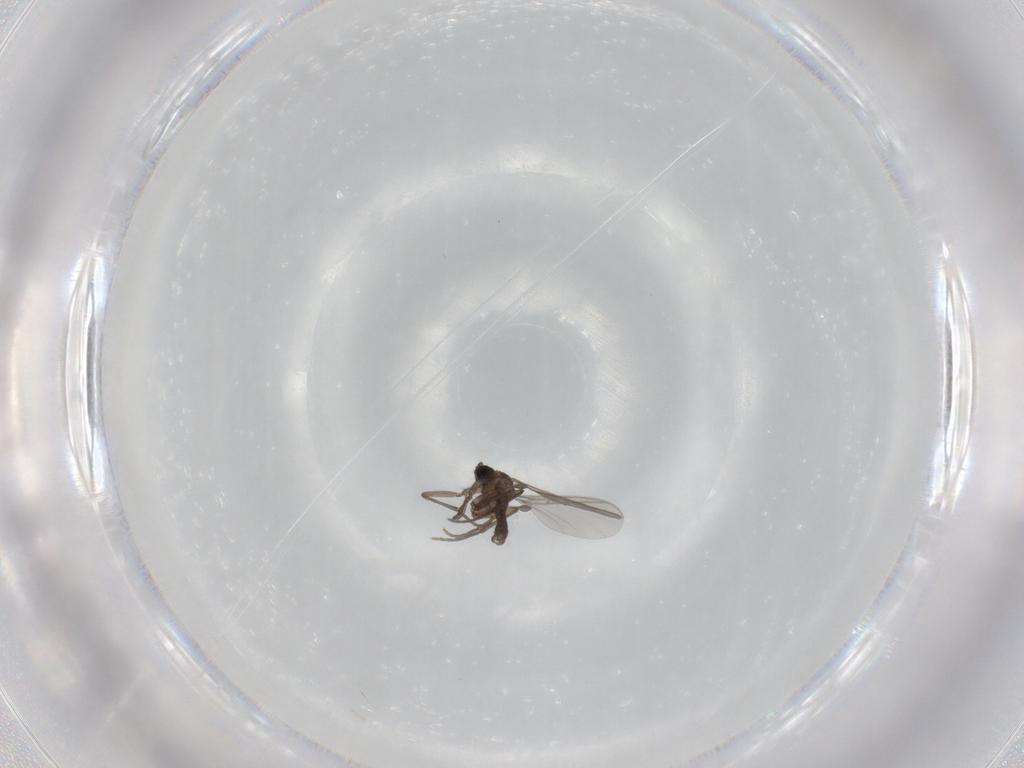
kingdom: Animalia
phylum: Arthropoda
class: Insecta
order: Diptera
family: Sciaridae
